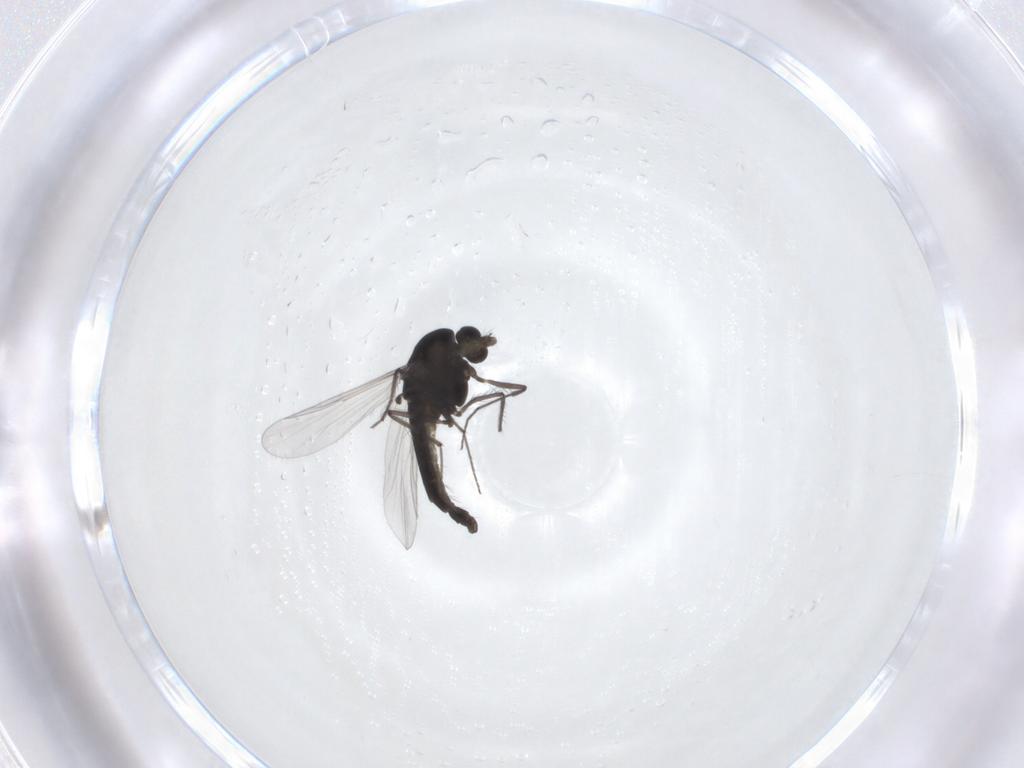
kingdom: Animalia
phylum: Arthropoda
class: Insecta
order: Diptera
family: Chironomidae
